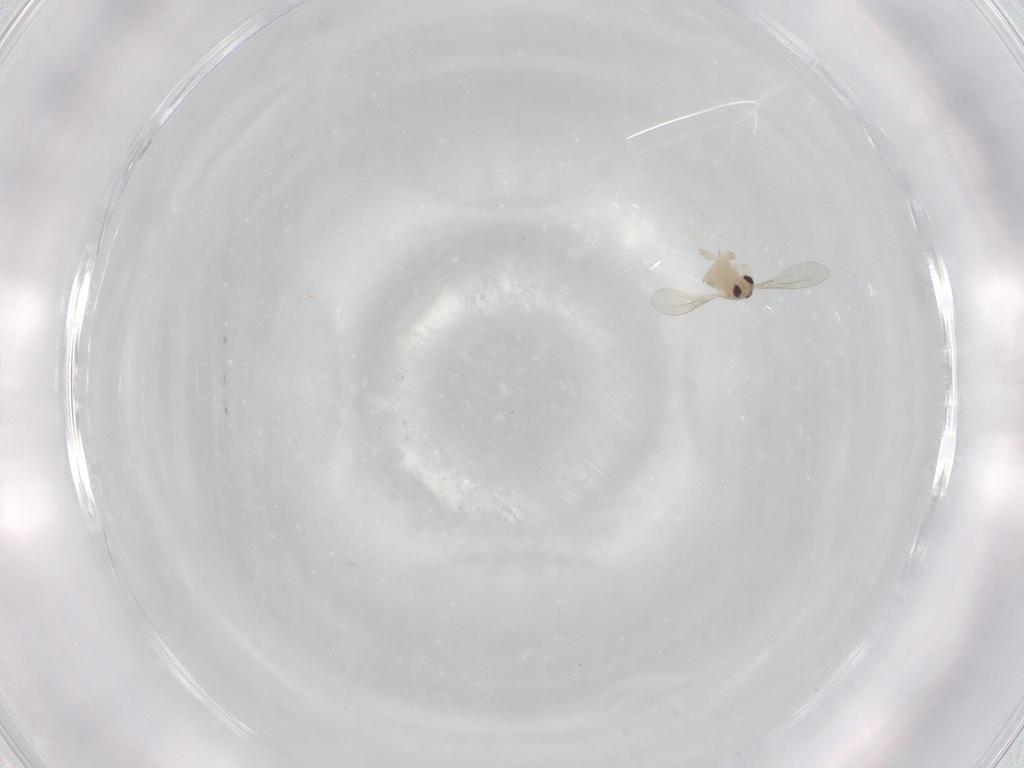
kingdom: Animalia
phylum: Arthropoda
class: Insecta
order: Diptera
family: Cecidomyiidae
